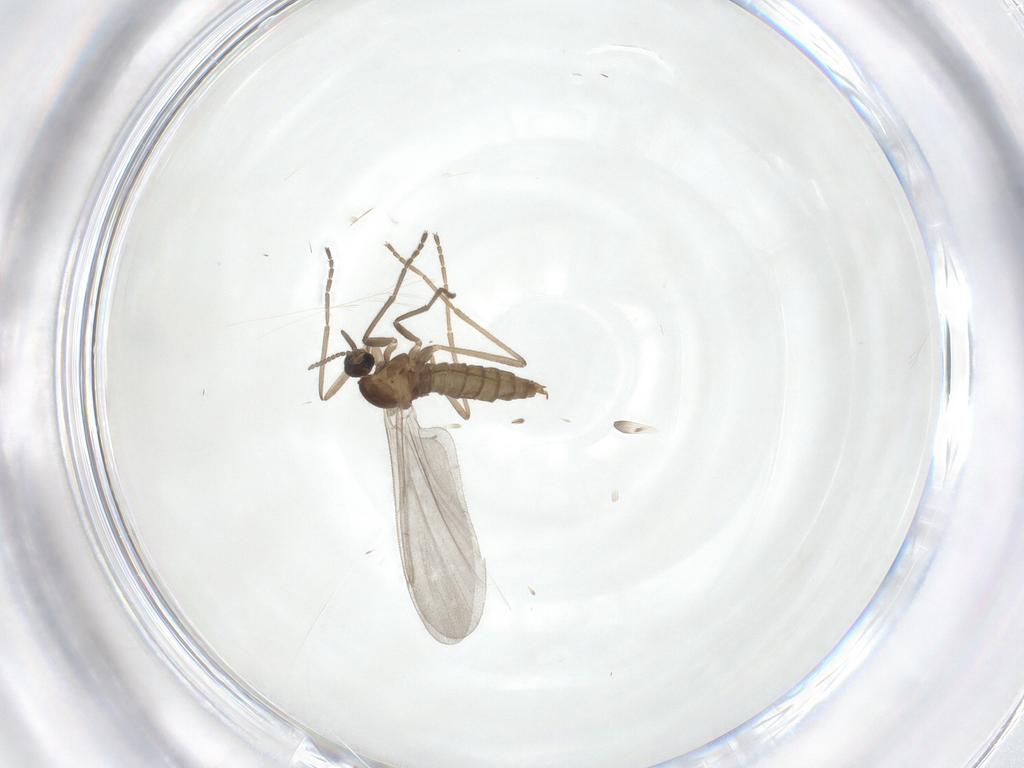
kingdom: Animalia
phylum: Arthropoda
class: Insecta
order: Diptera
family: Cecidomyiidae
